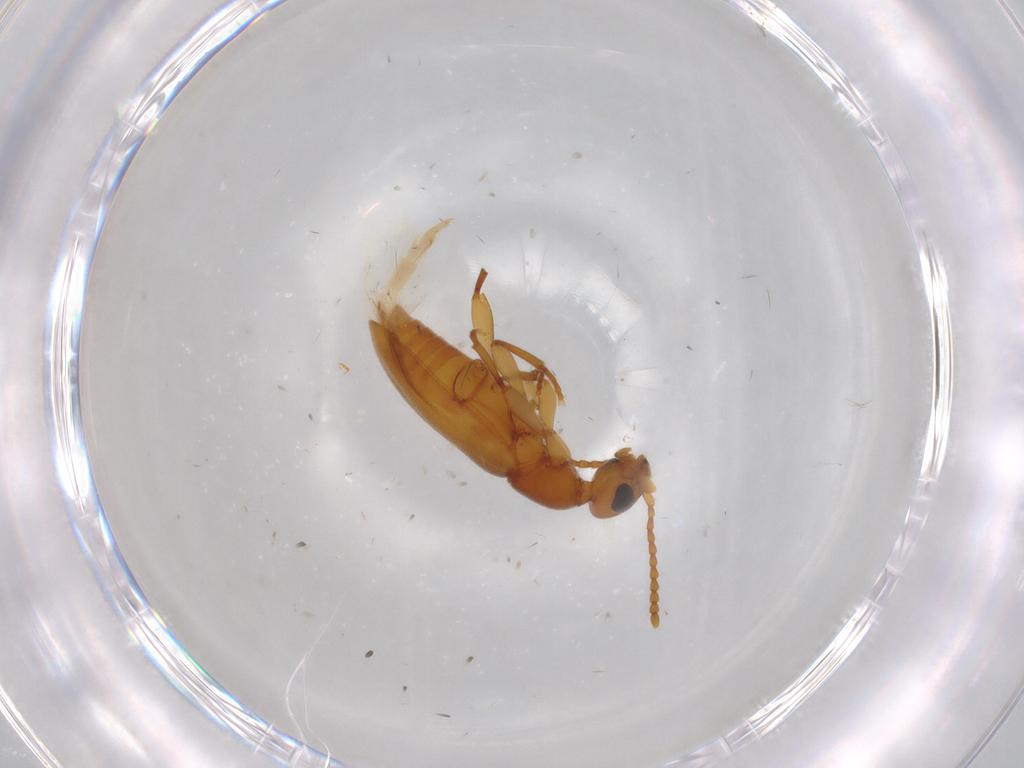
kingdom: Animalia
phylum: Arthropoda
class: Insecta
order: Coleoptera
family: Anthicidae
